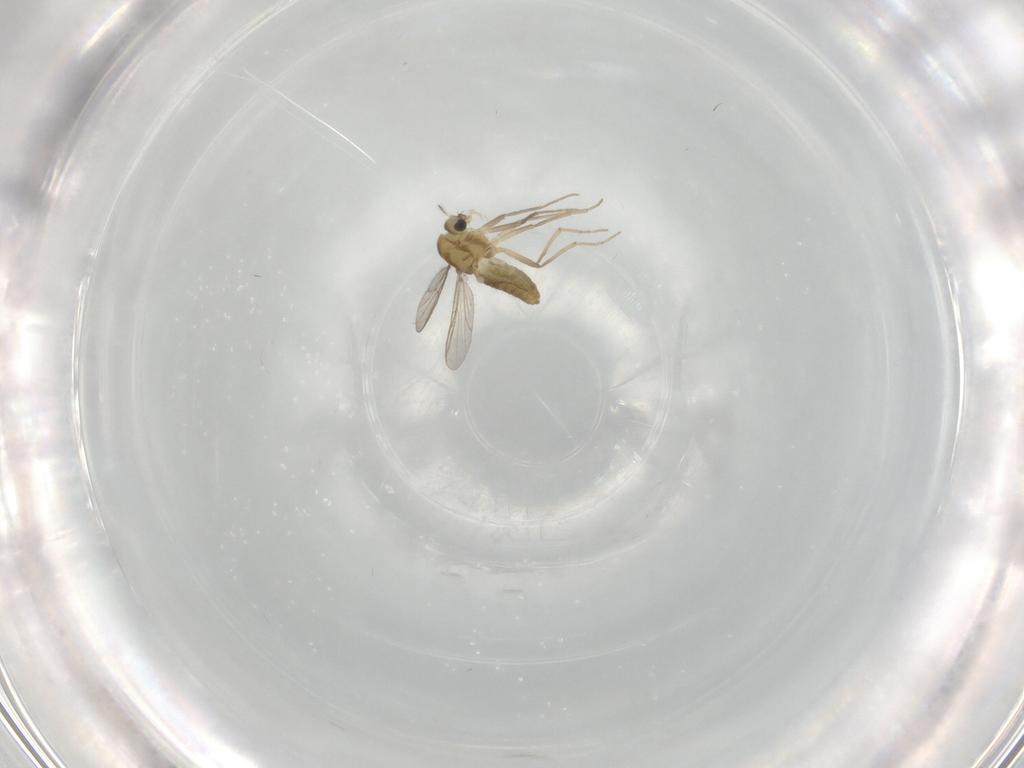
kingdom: Animalia
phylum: Arthropoda
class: Insecta
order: Diptera
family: Chironomidae
